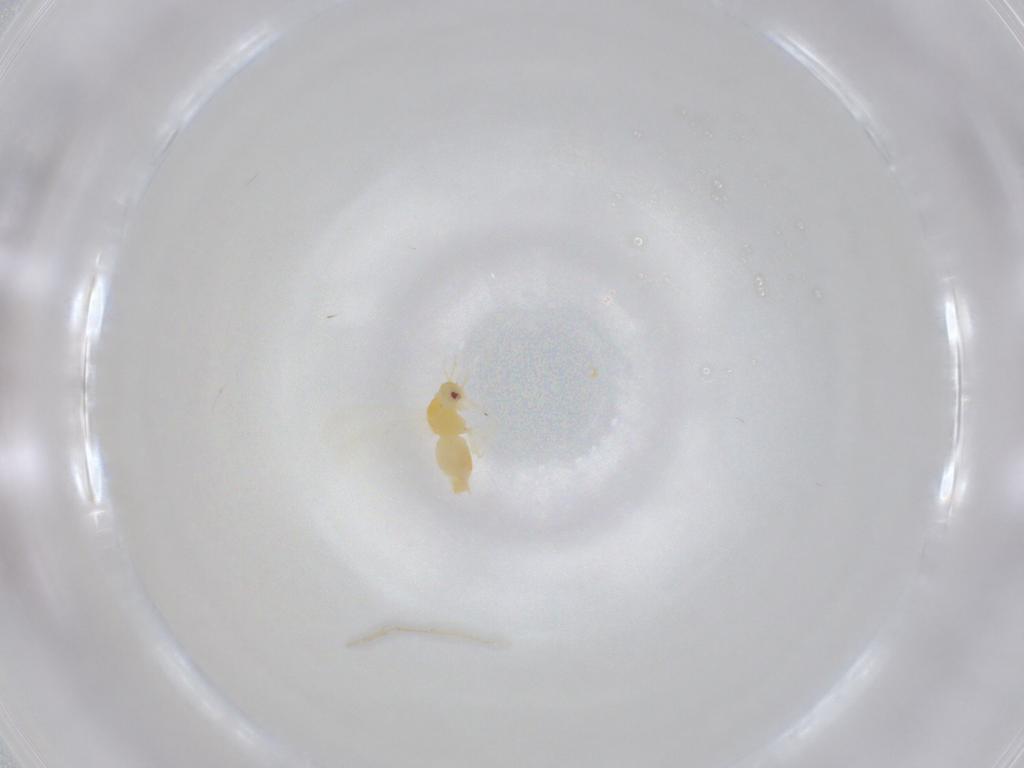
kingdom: Animalia
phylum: Arthropoda
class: Insecta
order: Hemiptera
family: Aleyrodidae
